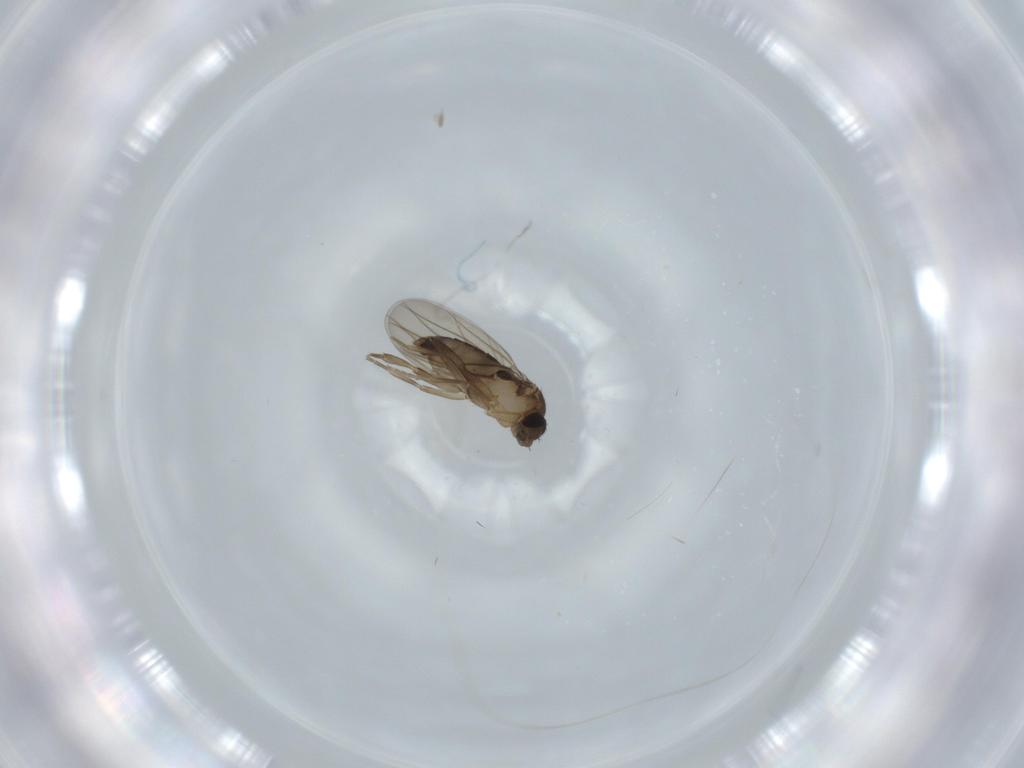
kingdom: Animalia
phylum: Arthropoda
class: Insecta
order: Diptera
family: Phoridae
